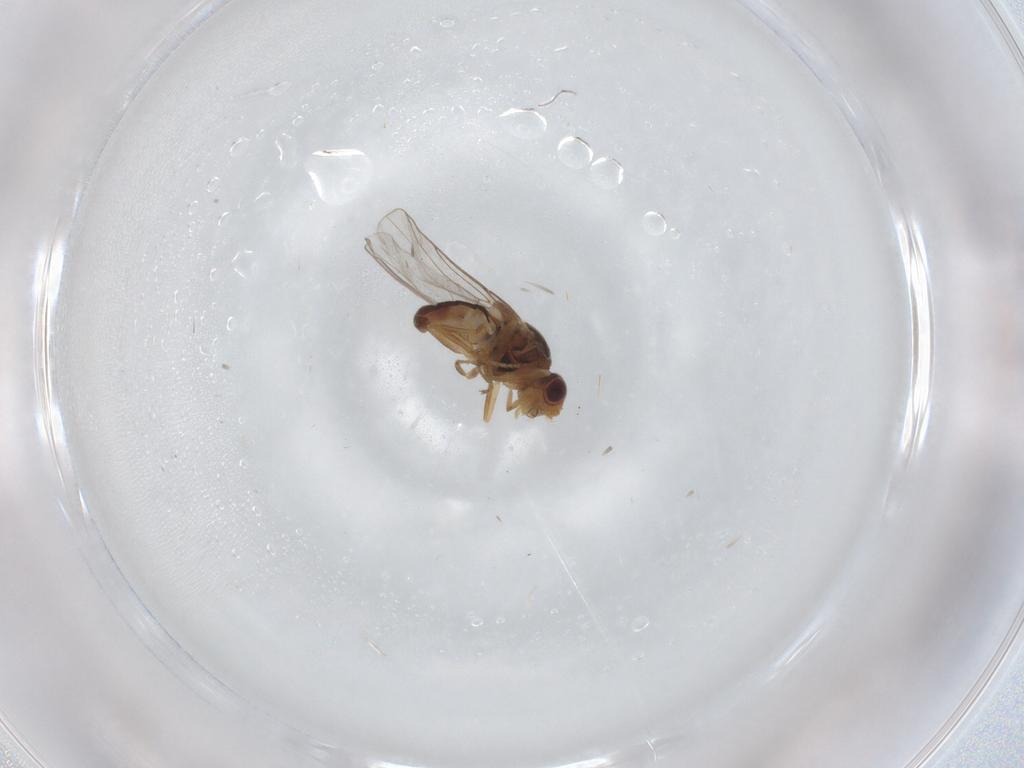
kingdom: Animalia
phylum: Arthropoda
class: Insecta
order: Diptera
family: Chloropidae
